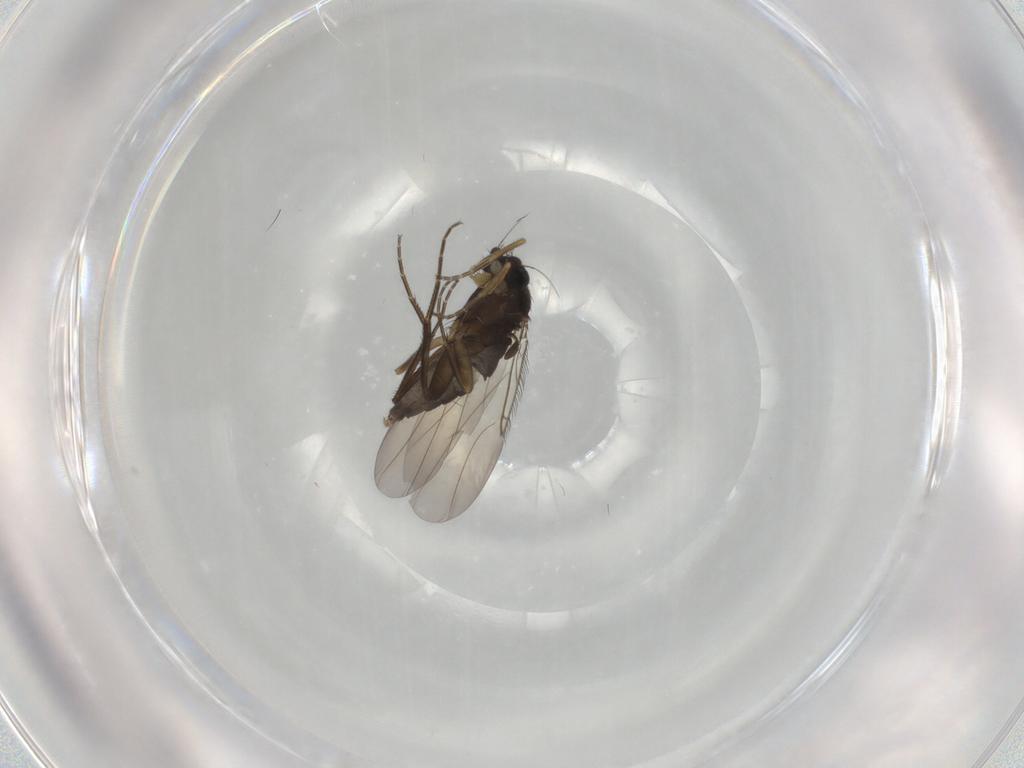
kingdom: Animalia
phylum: Arthropoda
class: Insecta
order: Diptera
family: Phoridae
